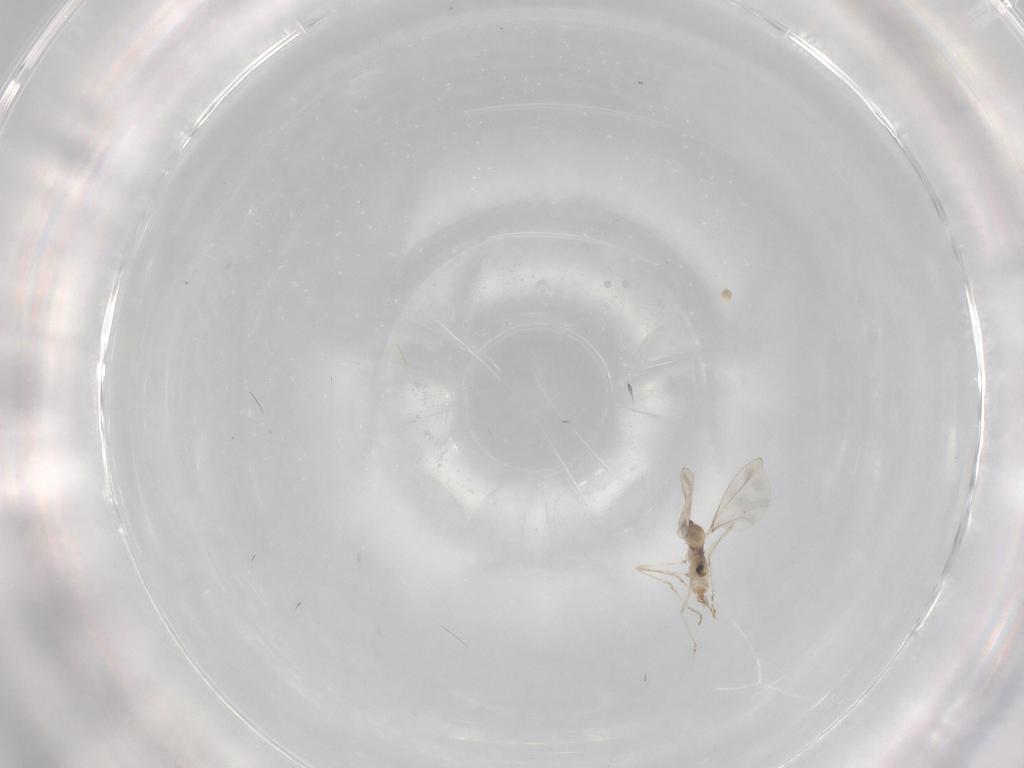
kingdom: Animalia
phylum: Arthropoda
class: Insecta
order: Diptera
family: Cecidomyiidae
